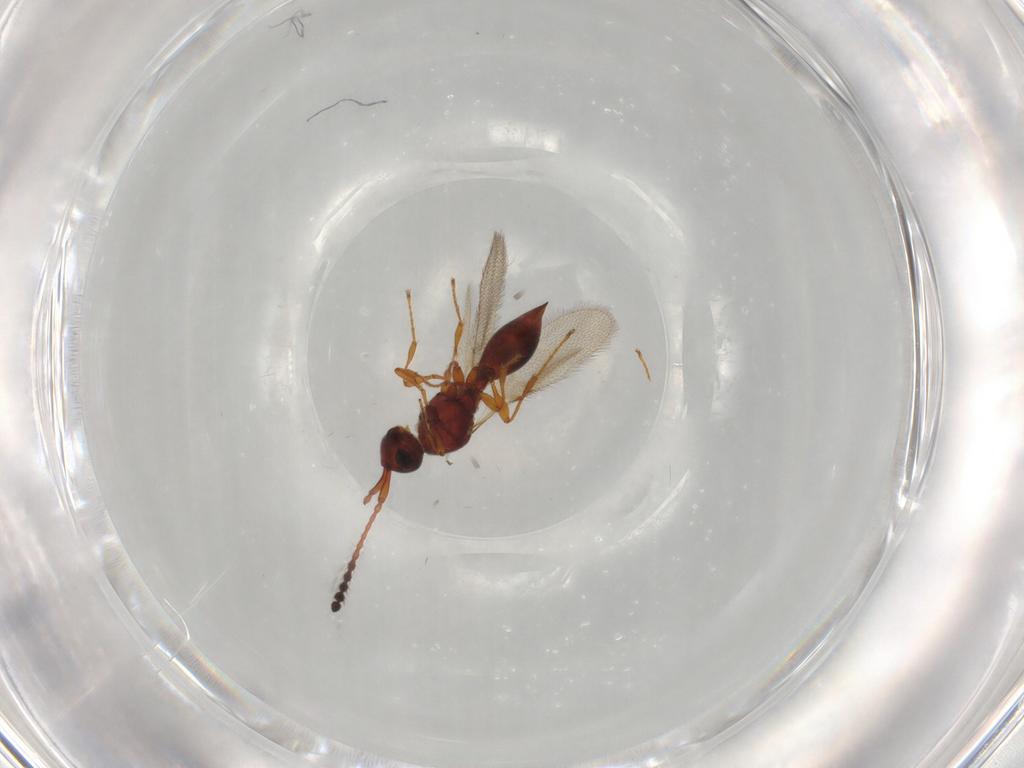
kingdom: Animalia
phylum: Arthropoda
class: Insecta
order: Hymenoptera
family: Diapriidae
